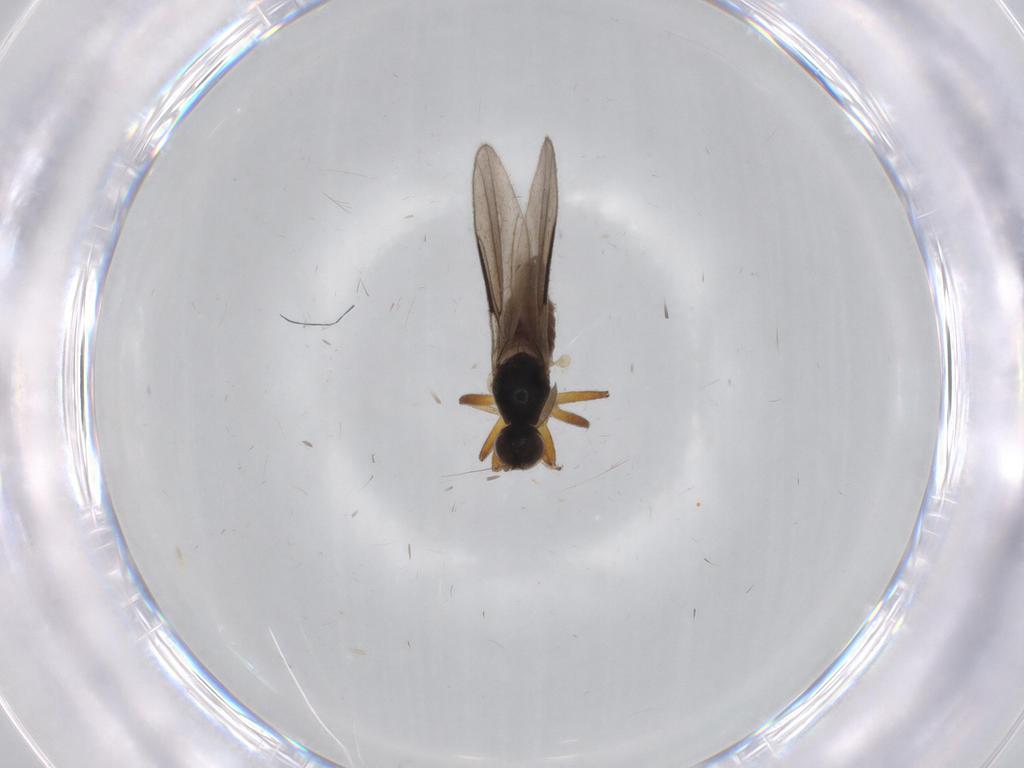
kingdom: Animalia
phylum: Arthropoda
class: Insecta
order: Diptera
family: Hybotidae
